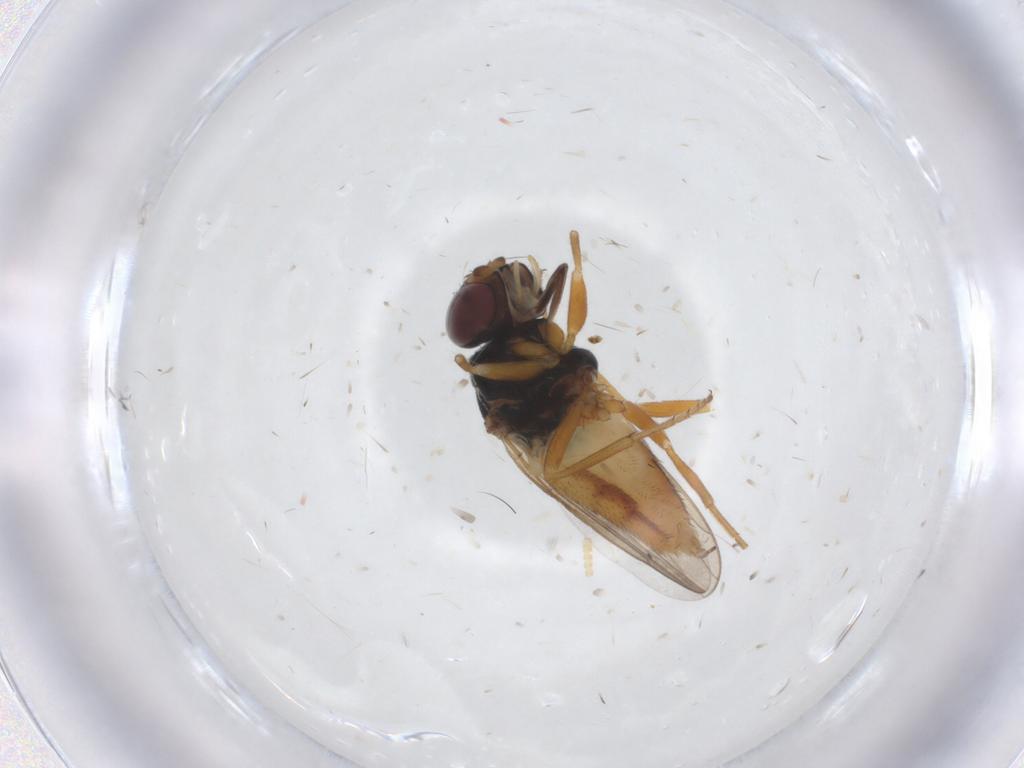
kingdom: Animalia
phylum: Arthropoda
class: Insecta
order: Diptera
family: Chloropidae
